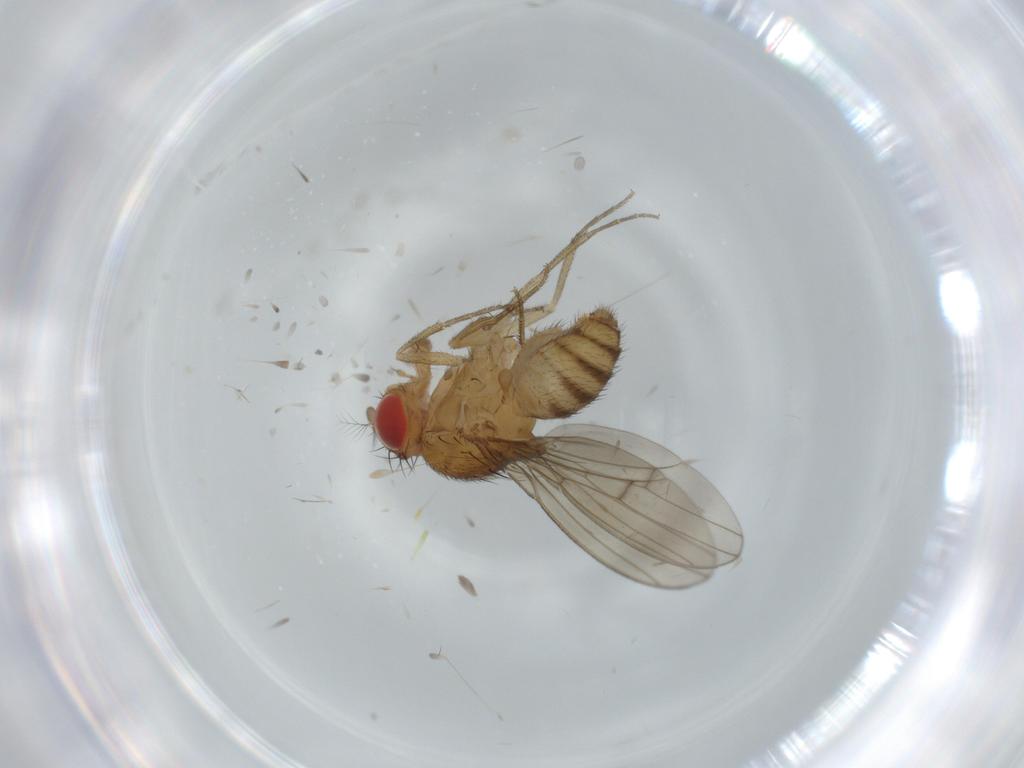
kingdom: Animalia
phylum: Arthropoda
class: Insecta
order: Diptera
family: Drosophilidae
